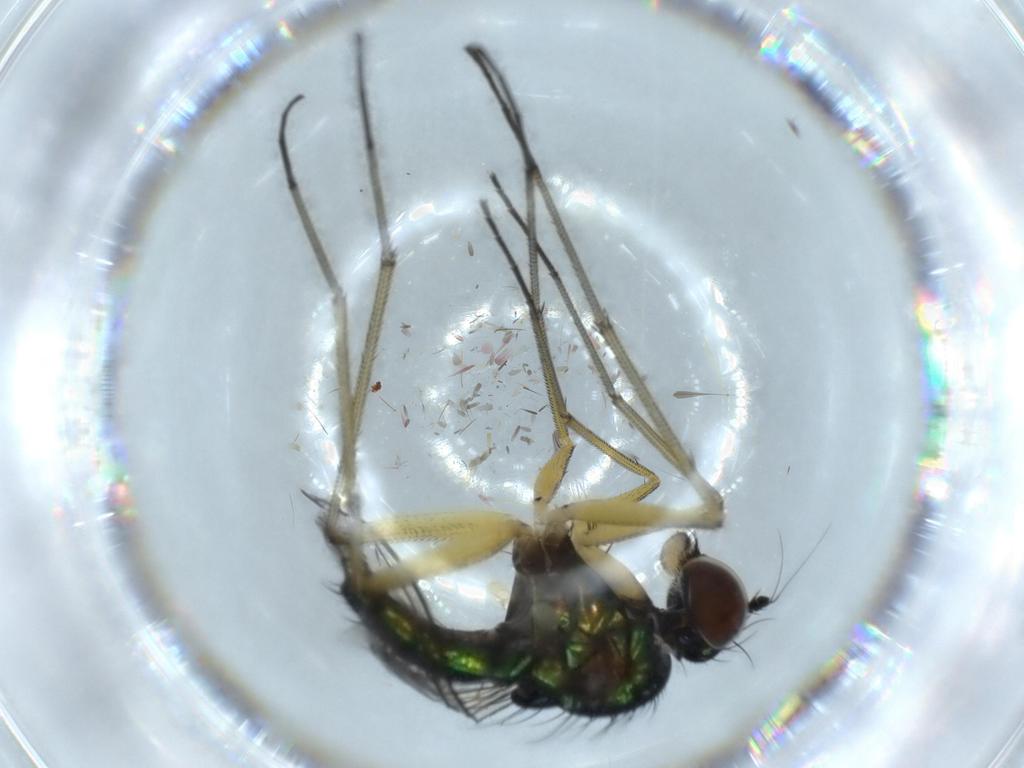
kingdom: Animalia
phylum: Arthropoda
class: Insecta
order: Diptera
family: Dolichopodidae
